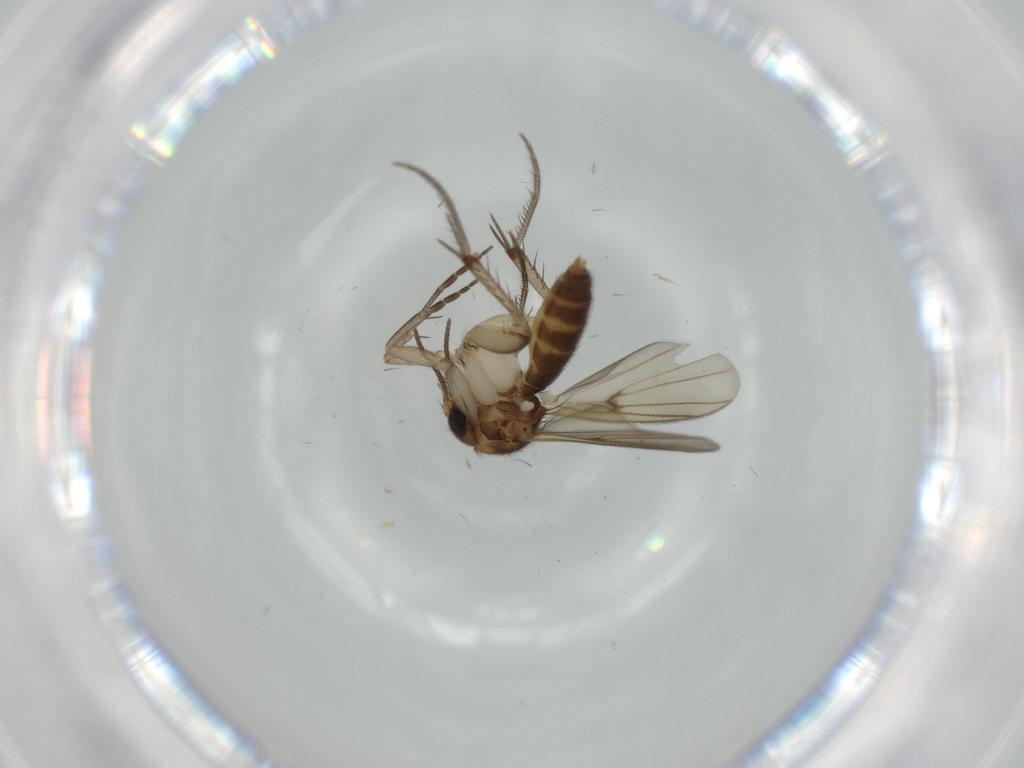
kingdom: Animalia
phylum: Arthropoda
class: Insecta
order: Diptera
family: Mycetophilidae
